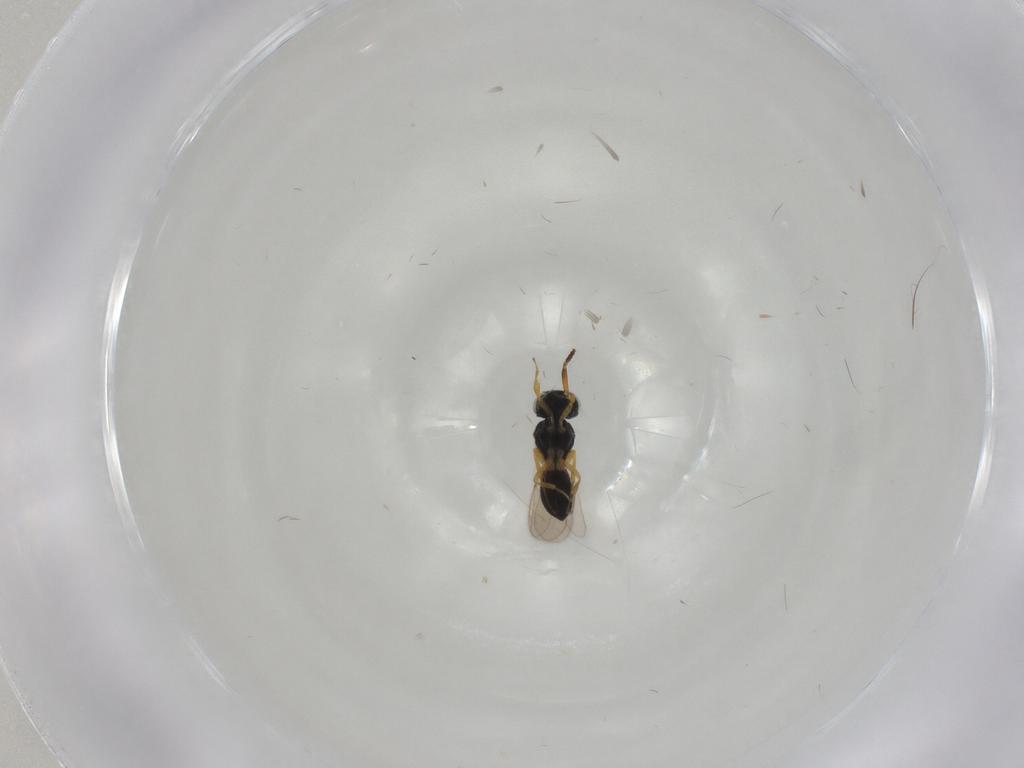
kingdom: Animalia
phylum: Arthropoda
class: Insecta
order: Hymenoptera
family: Scelionidae
